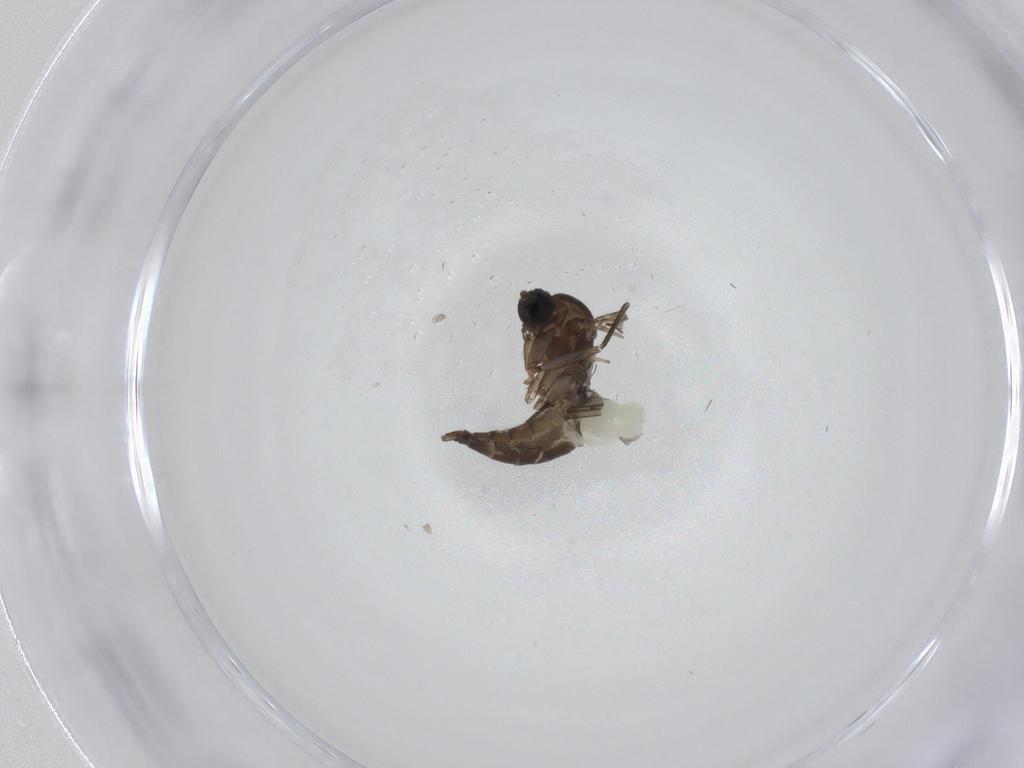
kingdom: Animalia
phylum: Arthropoda
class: Insecta
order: Diptera
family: Sciaridae
